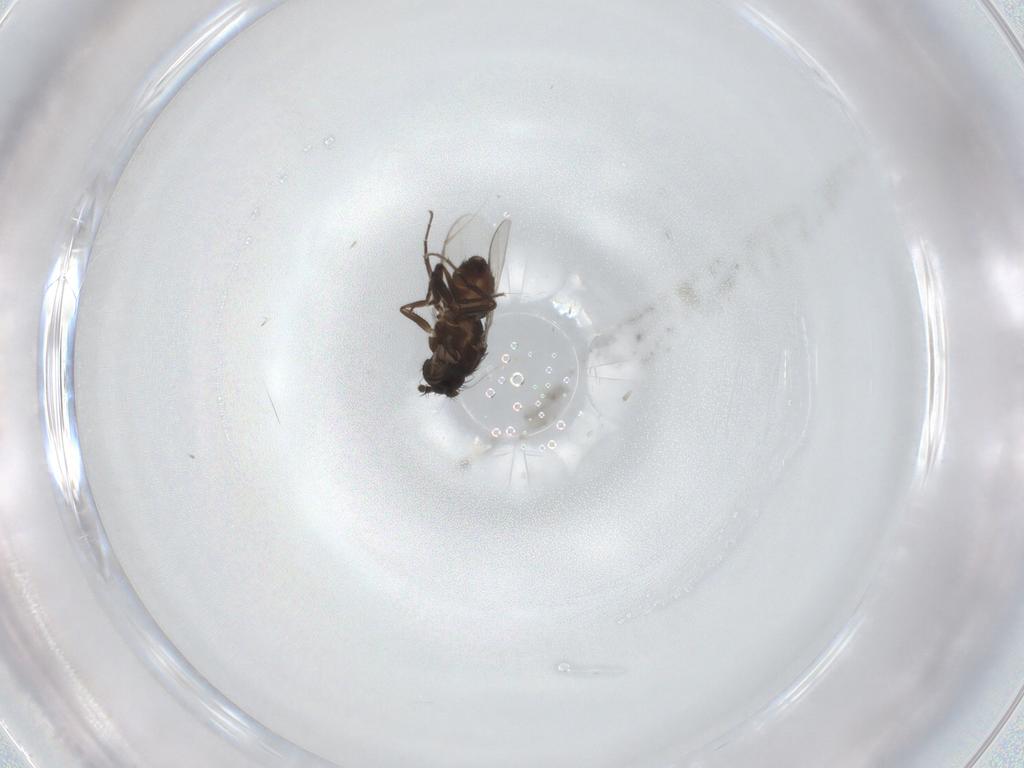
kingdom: Animalia
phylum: Arthropoda
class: Insecta
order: Diptera
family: Sphaeroceridae
